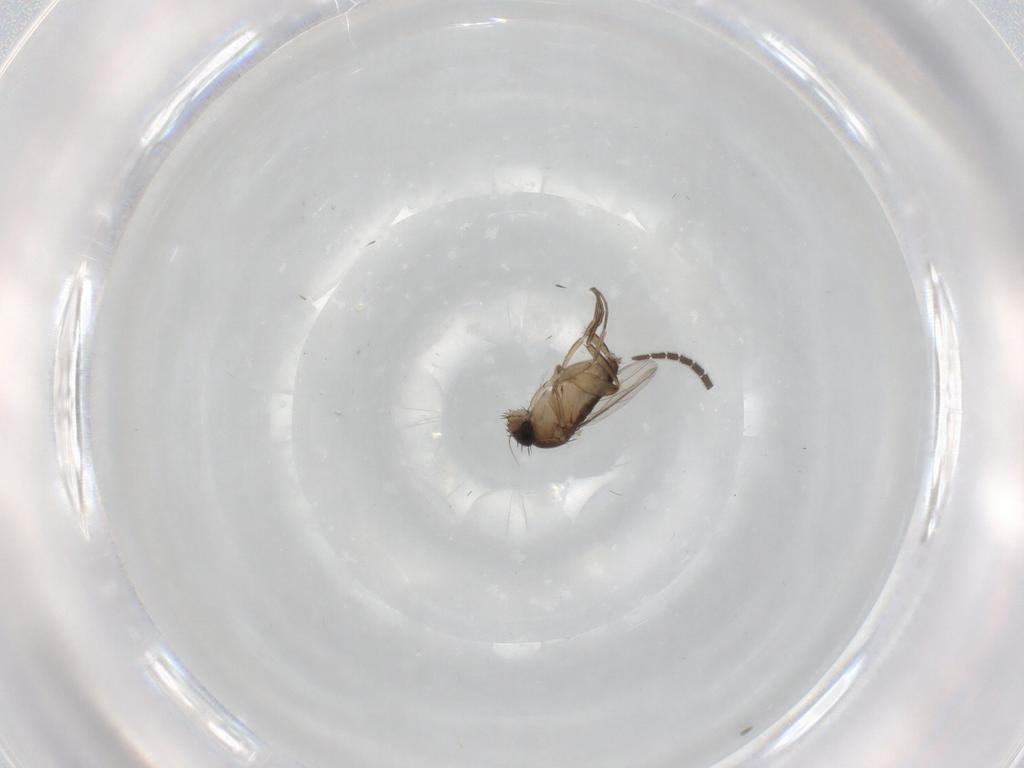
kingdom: Animalia
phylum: Arthropoda
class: Insecta
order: Diptera
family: Phoridae
